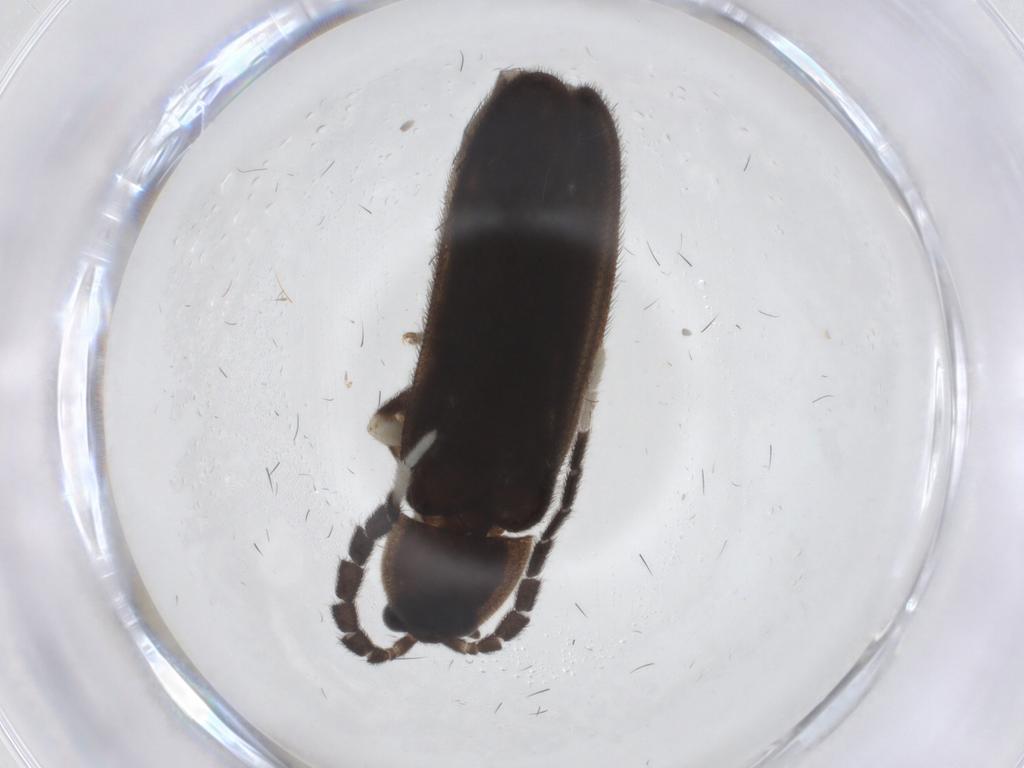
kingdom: Animalia
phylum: Arthropoda
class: Insecta
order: Coleoptera
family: Lampyridae
